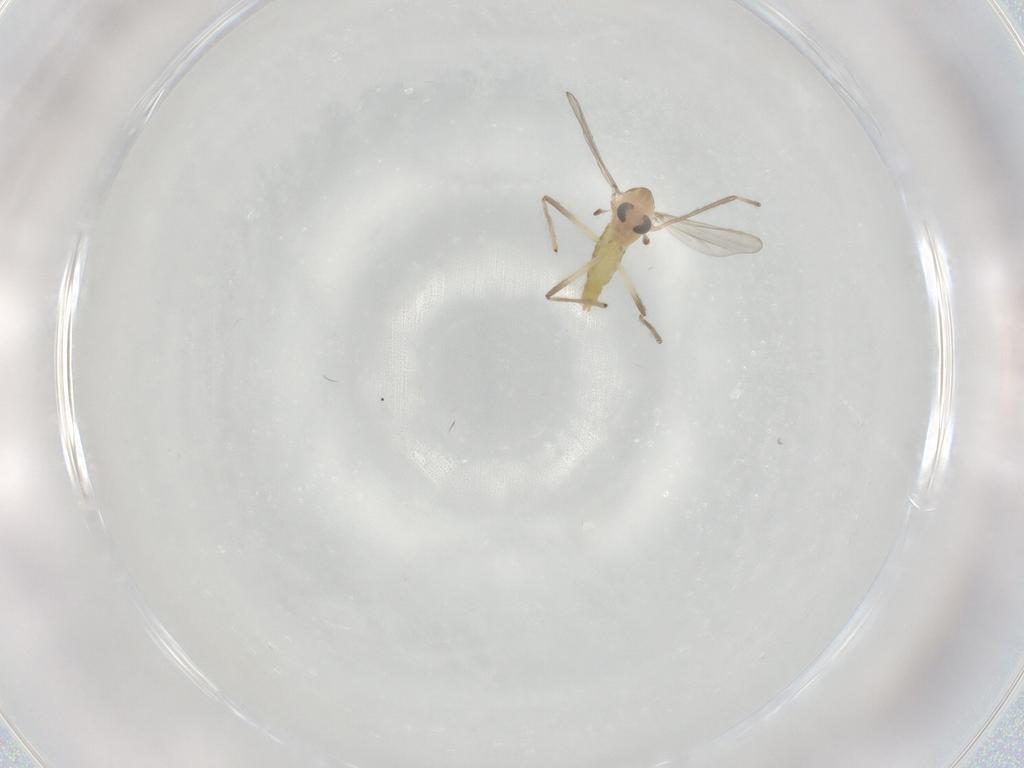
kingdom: Animalia
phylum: Arthropoda
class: Insecta
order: Diptera
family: Chironomidae
